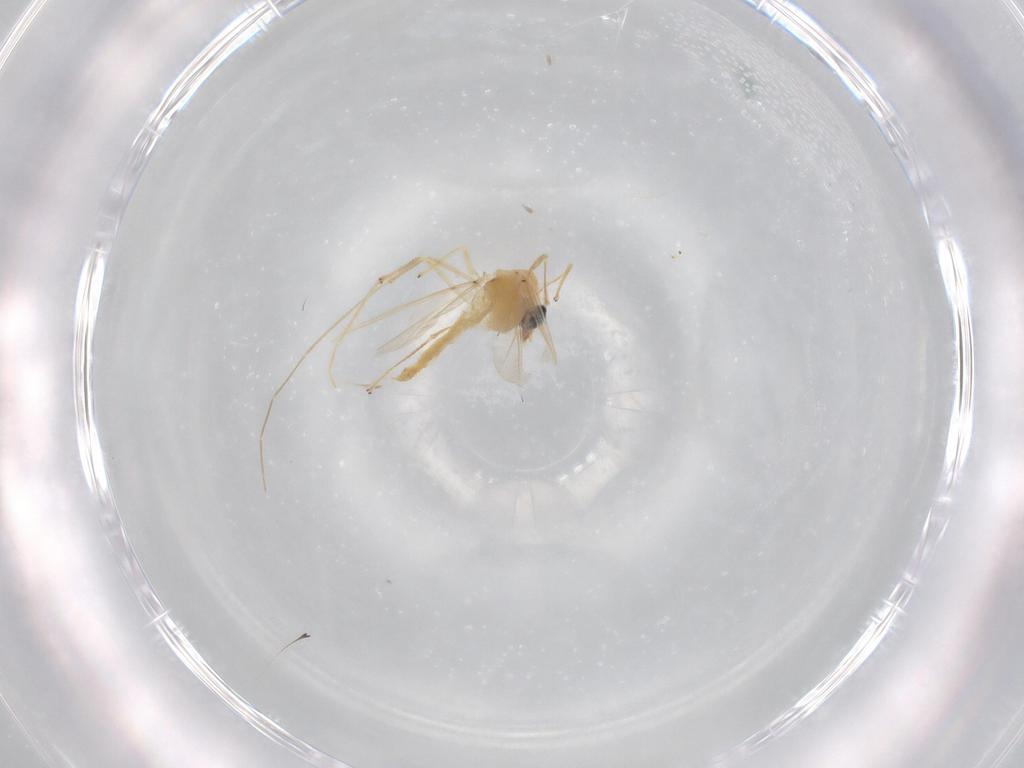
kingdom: Animalia
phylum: Arthropoda
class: Insecta
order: Diptera
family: Chironomidae
